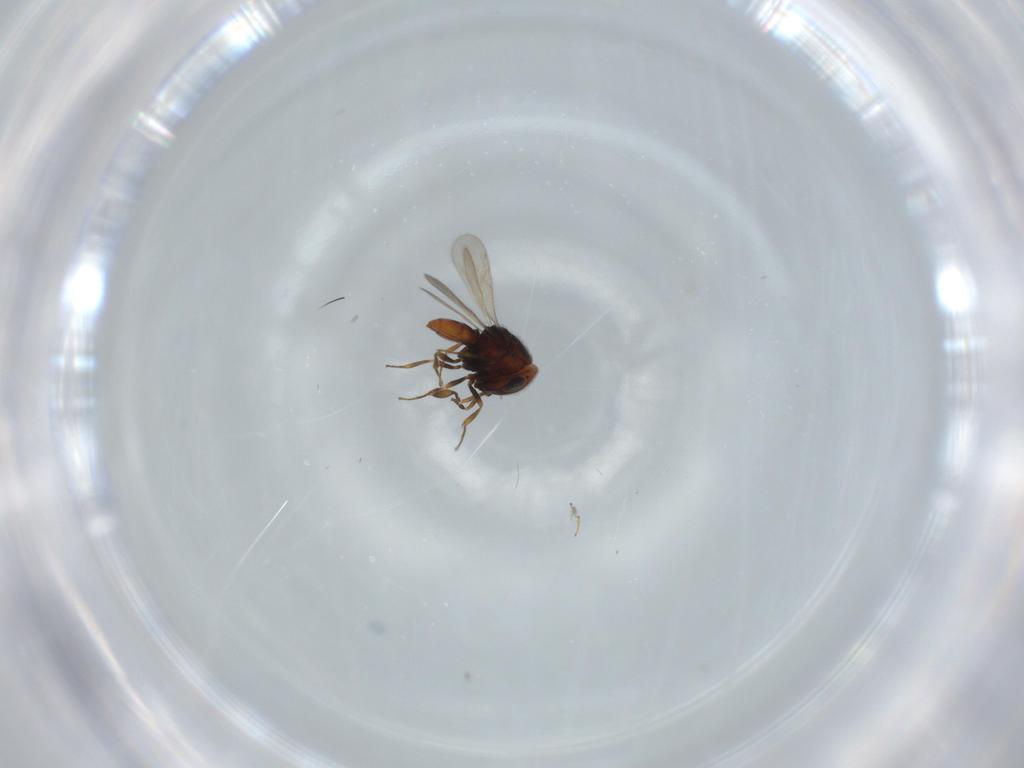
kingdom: Animalia
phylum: Arthropoda
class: Insecta
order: Hymenoptera
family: Scelionidae
